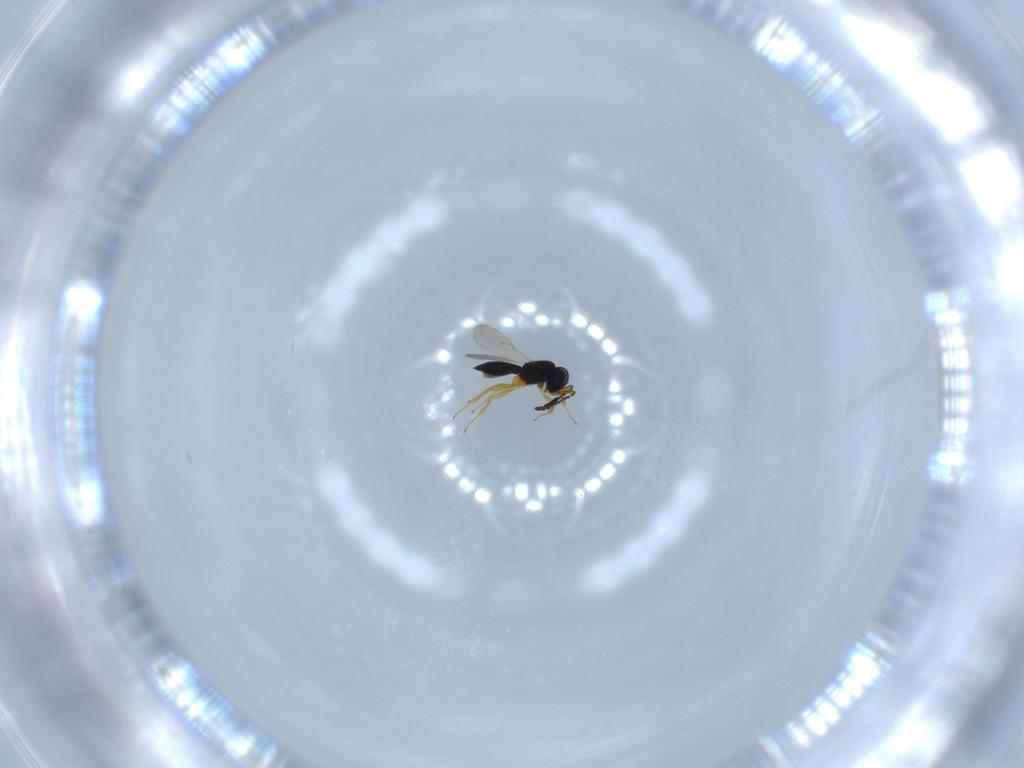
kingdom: Animalia
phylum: Arthropoda
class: Insecta
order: Hymenoptera
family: Scelionidae
